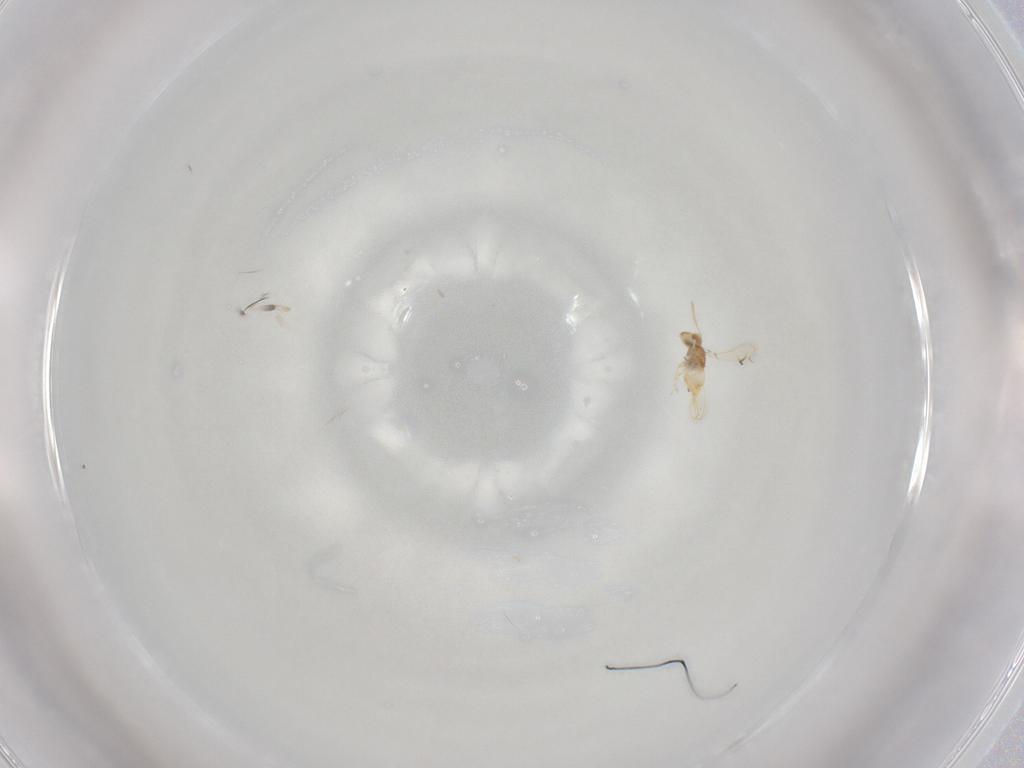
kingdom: Animalia
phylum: Arthropoda
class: Insecta
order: Hymenoptera
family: Aphelinidae
